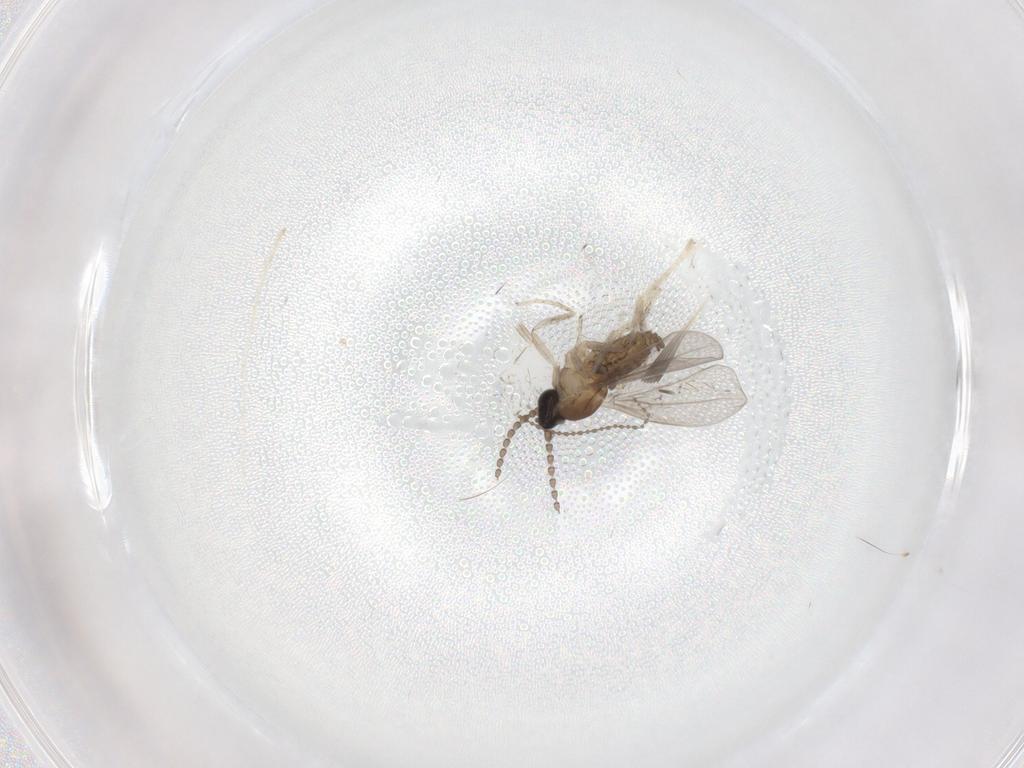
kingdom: Animalia
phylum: Arthropoda
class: Insecta
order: Diptera
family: Cecidomyiidae
